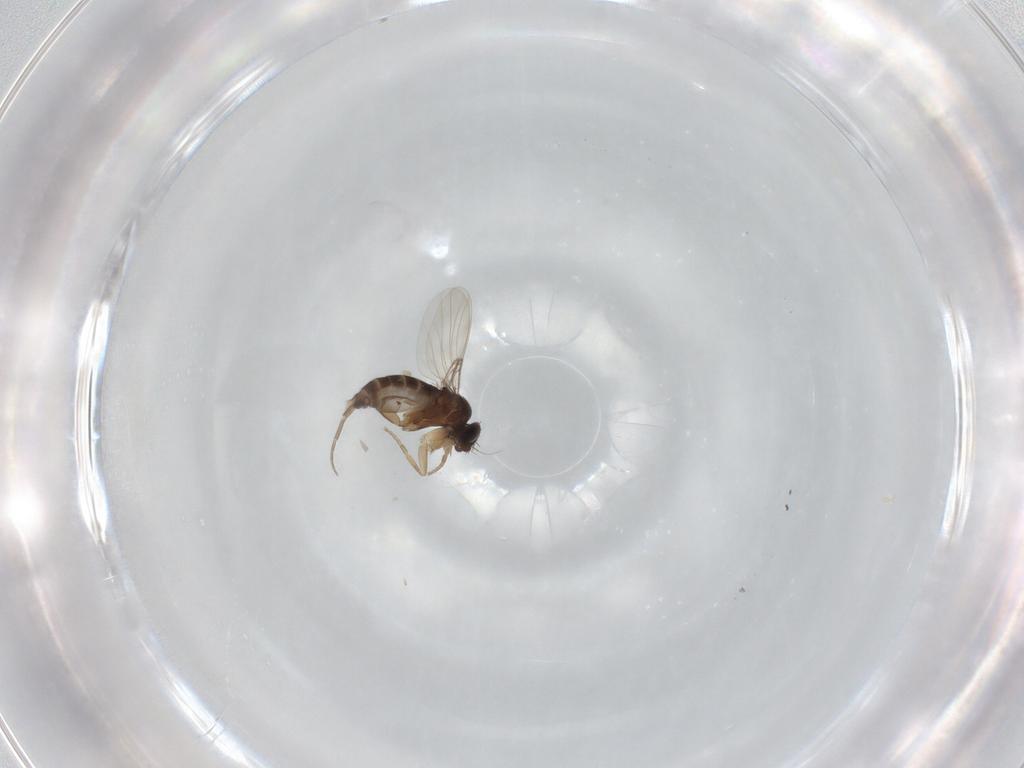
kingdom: Animalia
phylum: Arthropoda
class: Insecta
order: Diptera
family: Phoridae
